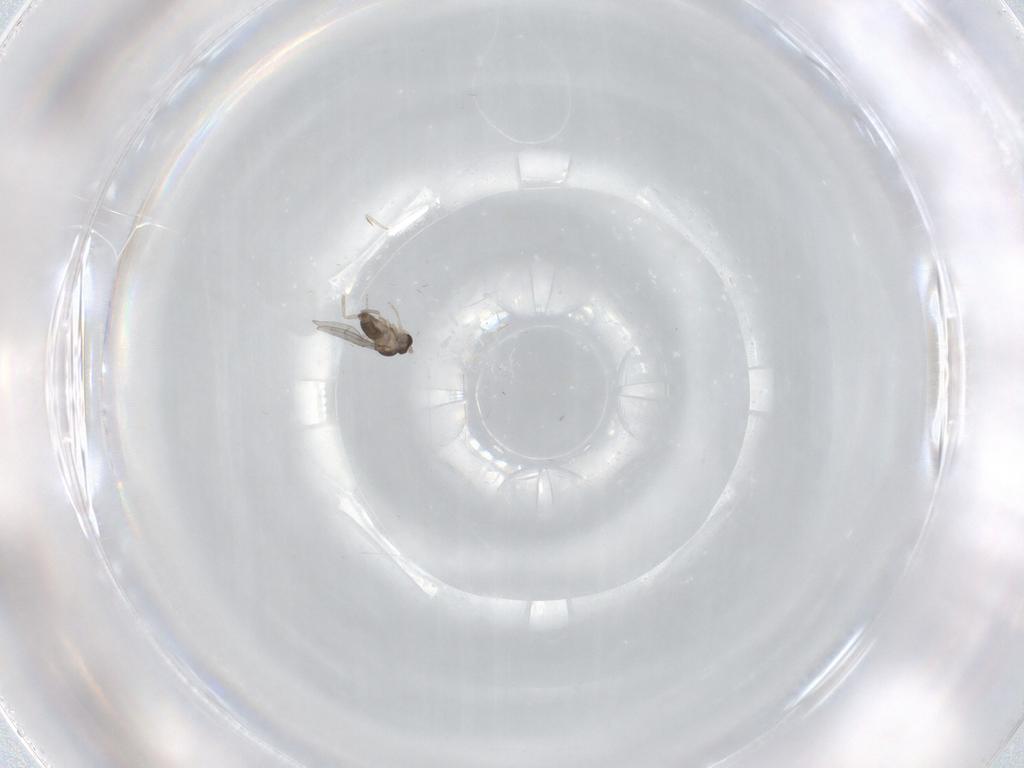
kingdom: Animalia
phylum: Arthropoda
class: Insecta
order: Diptera
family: Cecidomyiidae
